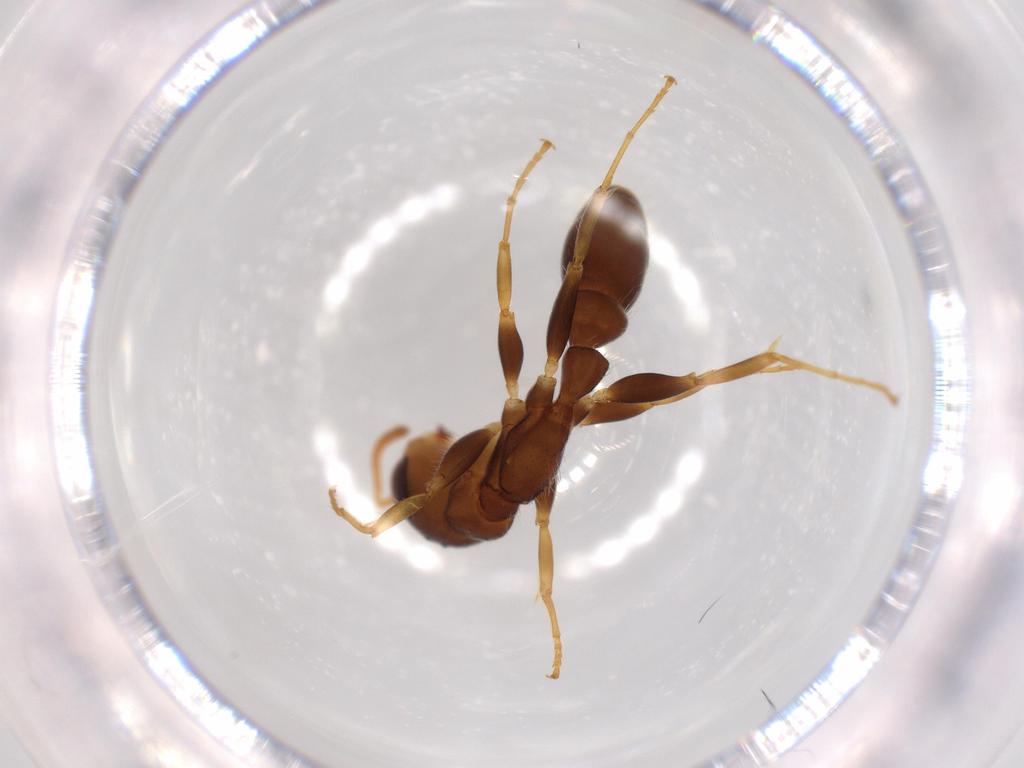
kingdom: Animalia
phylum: Arthropoda
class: Insecta
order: Hymenoptera
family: Formicidae
